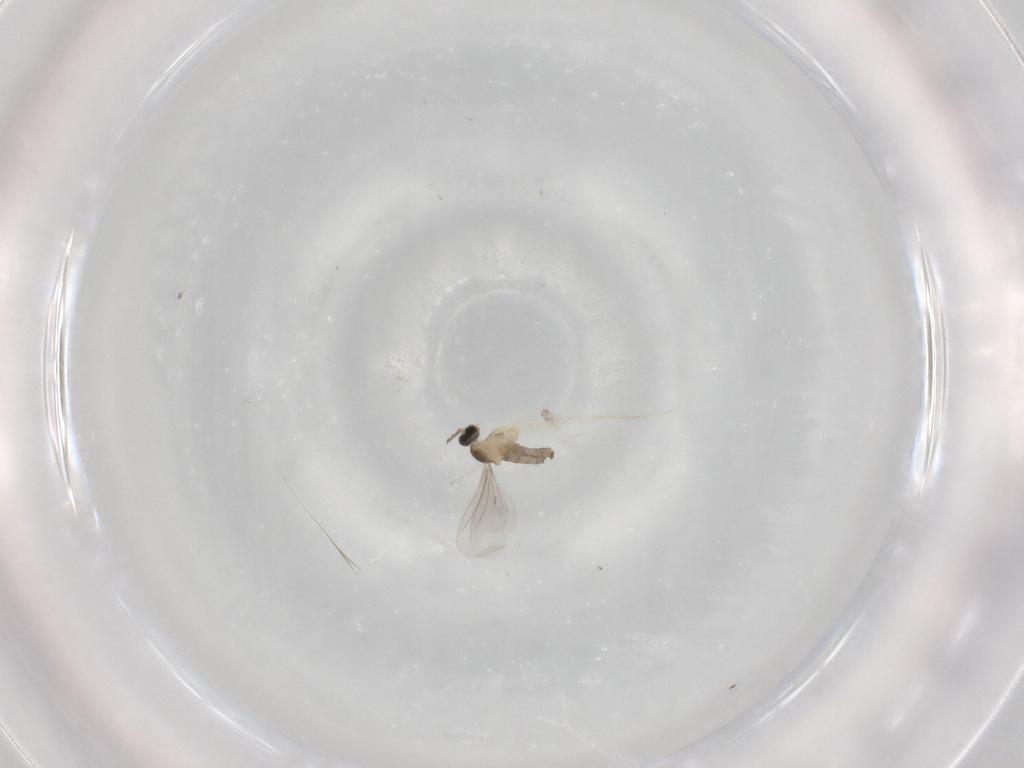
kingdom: Animalia
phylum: Arthropoda
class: Insecta
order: Diptera
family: Cecidomyiidae
